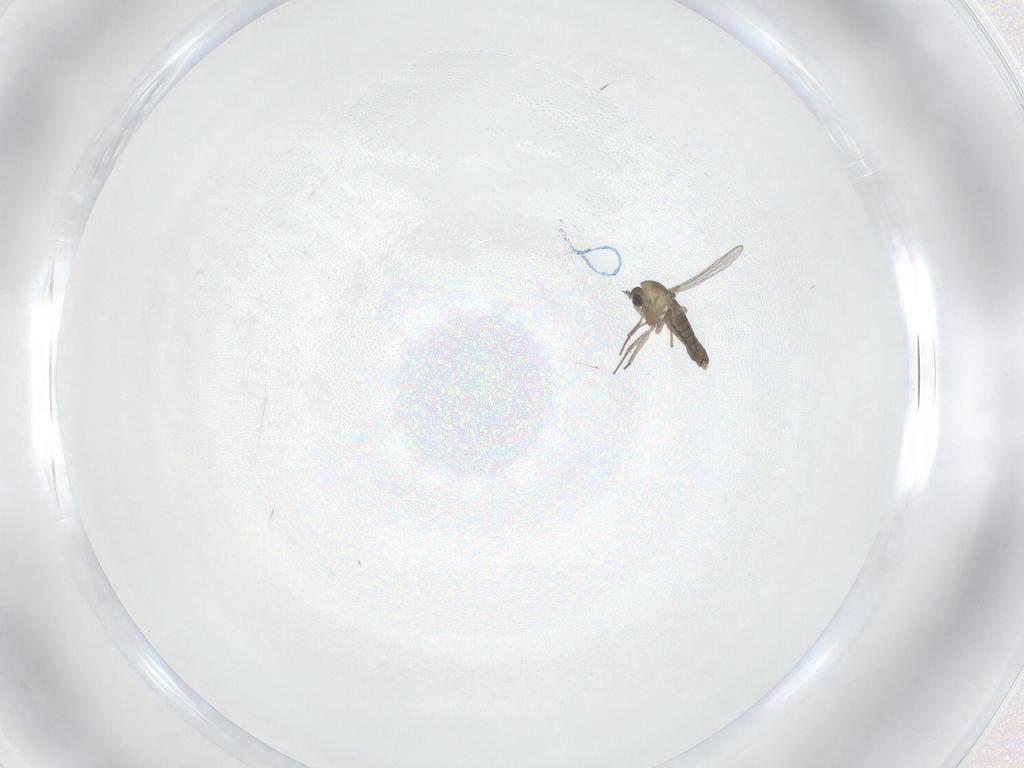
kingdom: Animalia
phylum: Arthropoda
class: Insecta
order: Diptera
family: Chironomidae
